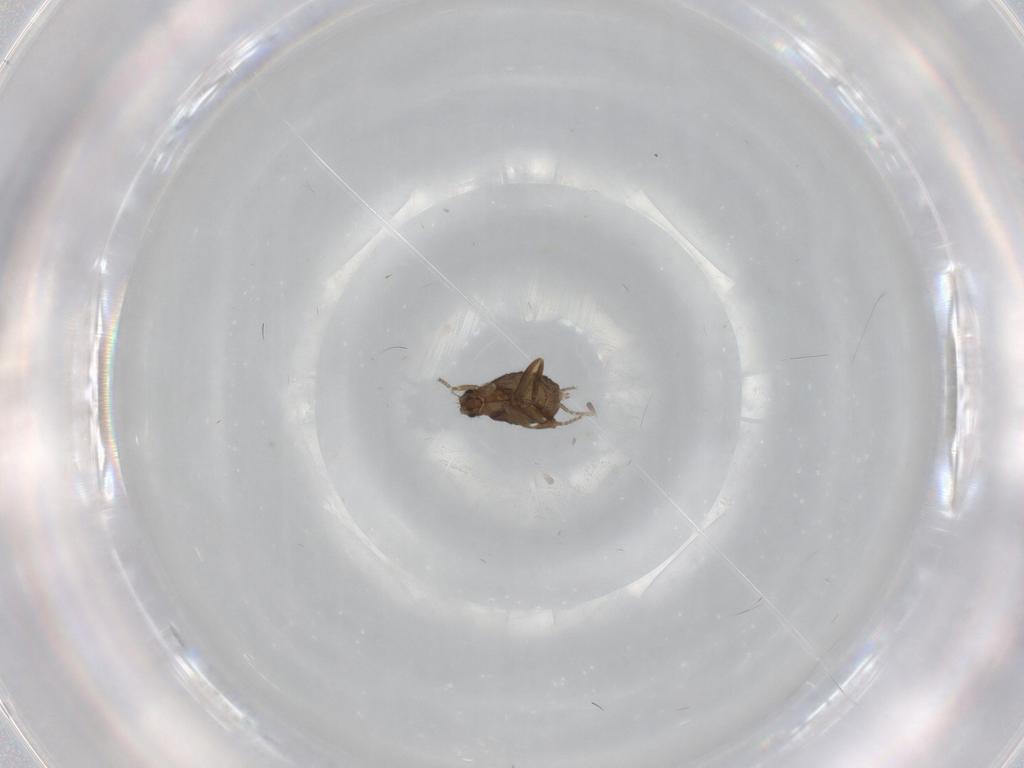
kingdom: Animalia
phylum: Arthropoda
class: Insecta
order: Diptera
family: Phoridae
